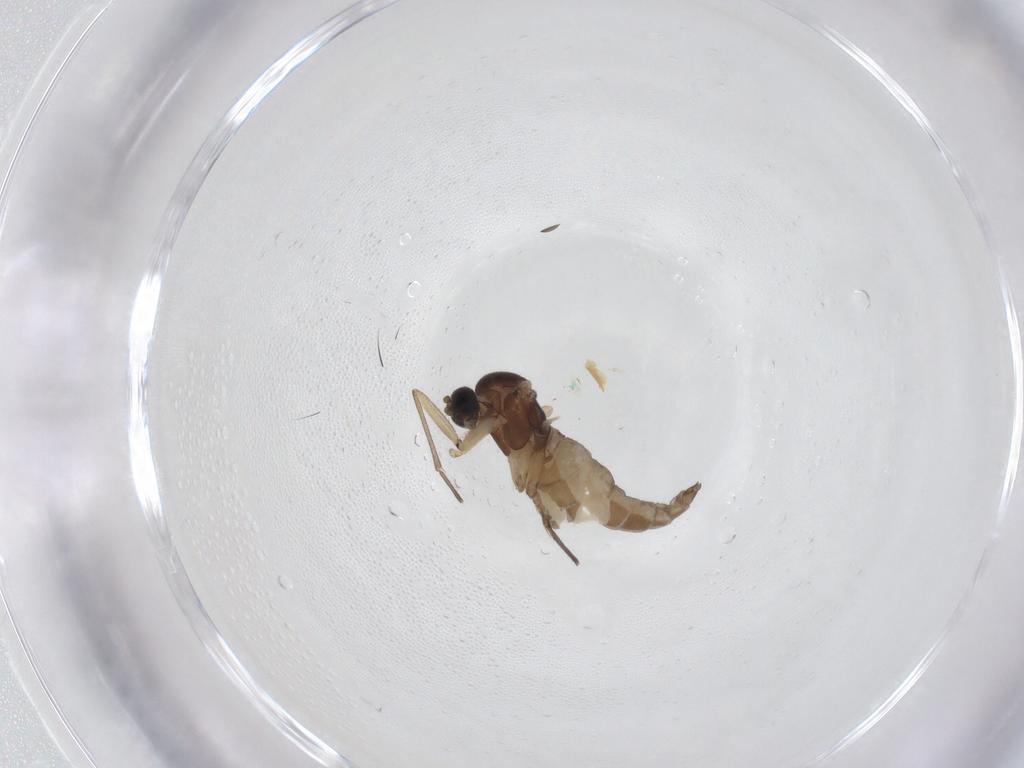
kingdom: Animalia
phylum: Arthropoda
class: Insecta
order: Diptera
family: Sciaridae
